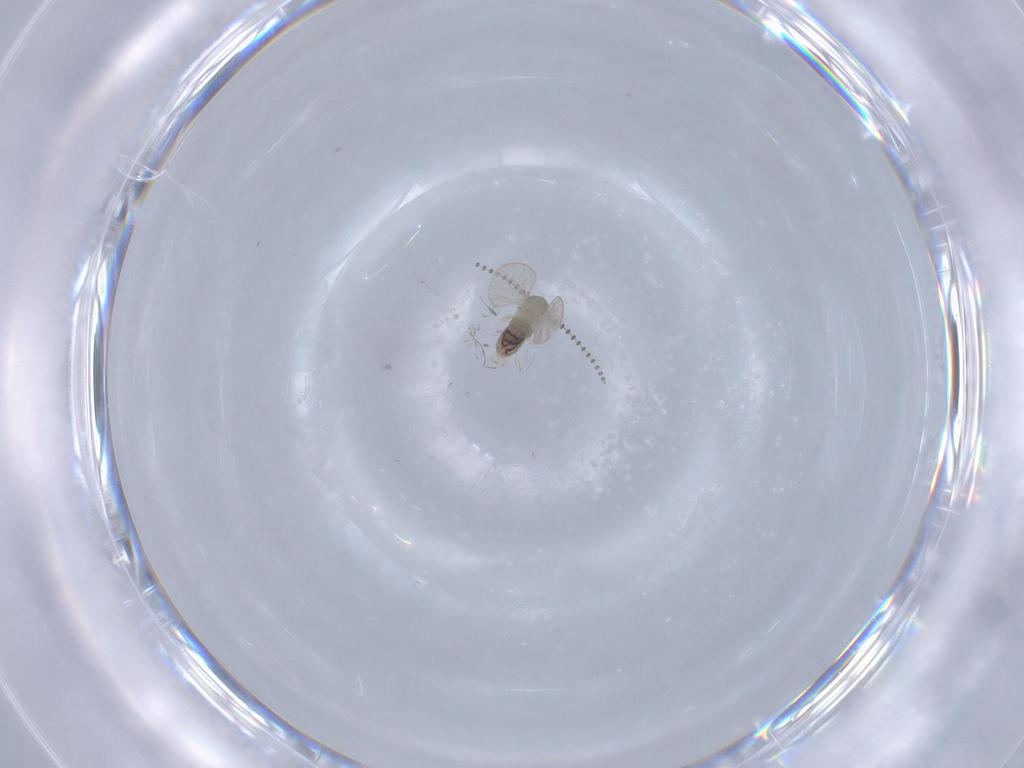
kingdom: Animalia
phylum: Arthropoda
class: Insecta
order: Diptera
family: Psychodidae
